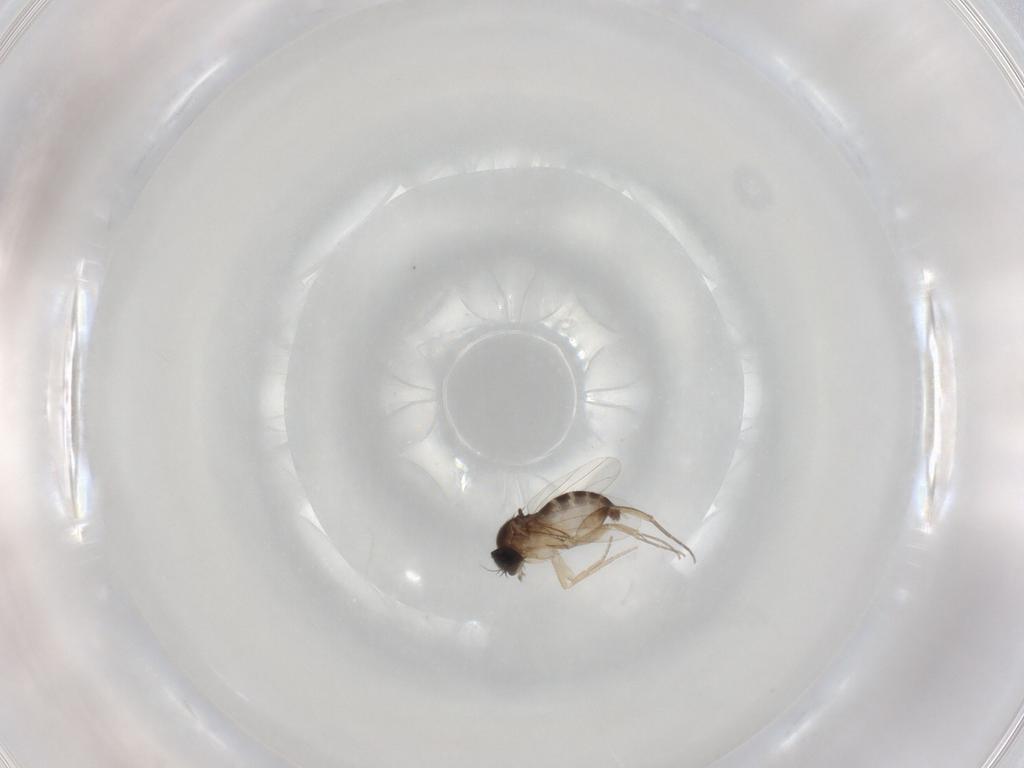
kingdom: Animalia
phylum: Arthropoda
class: Insecta
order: Diptera
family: Phoridae
